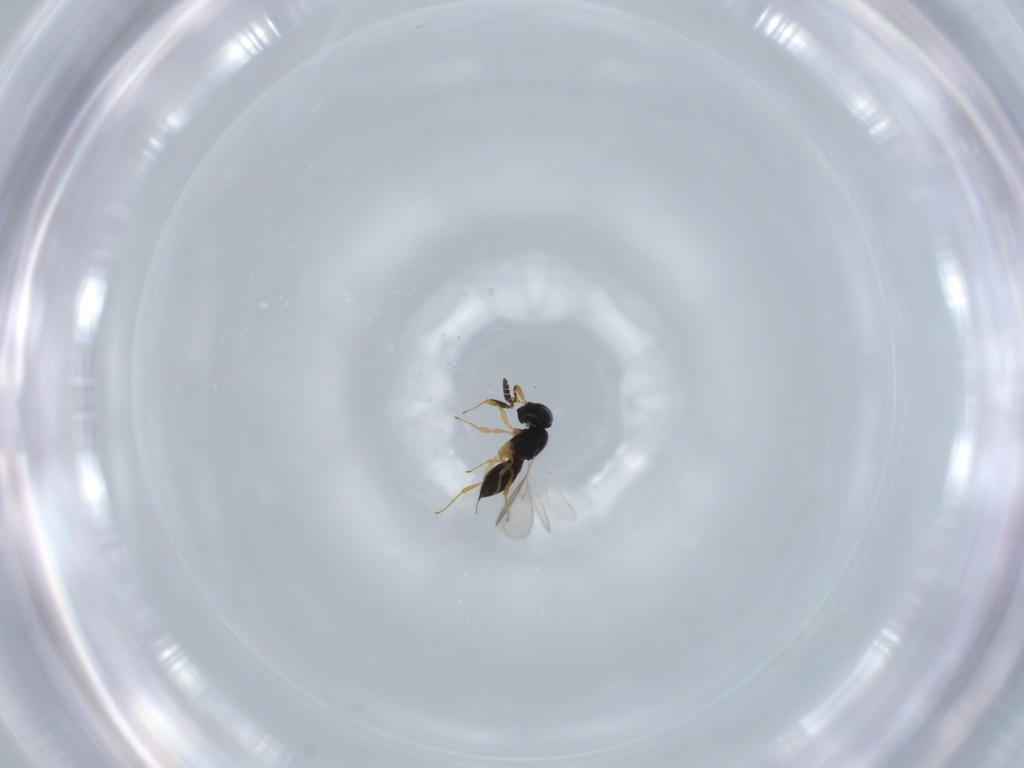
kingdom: Animalia
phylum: Arthropoda
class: Insecta
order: Hymenoptera
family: Scelionidae
